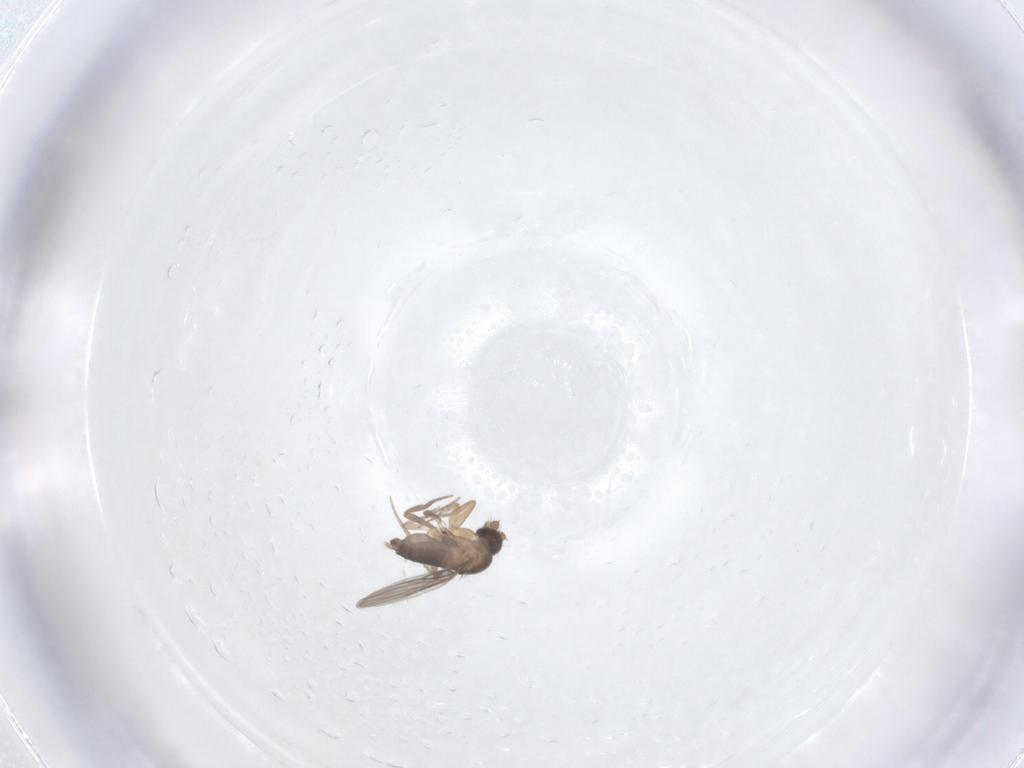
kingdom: Animalia
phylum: Arthropoda
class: Insecta
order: Diptera
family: Phoridae
